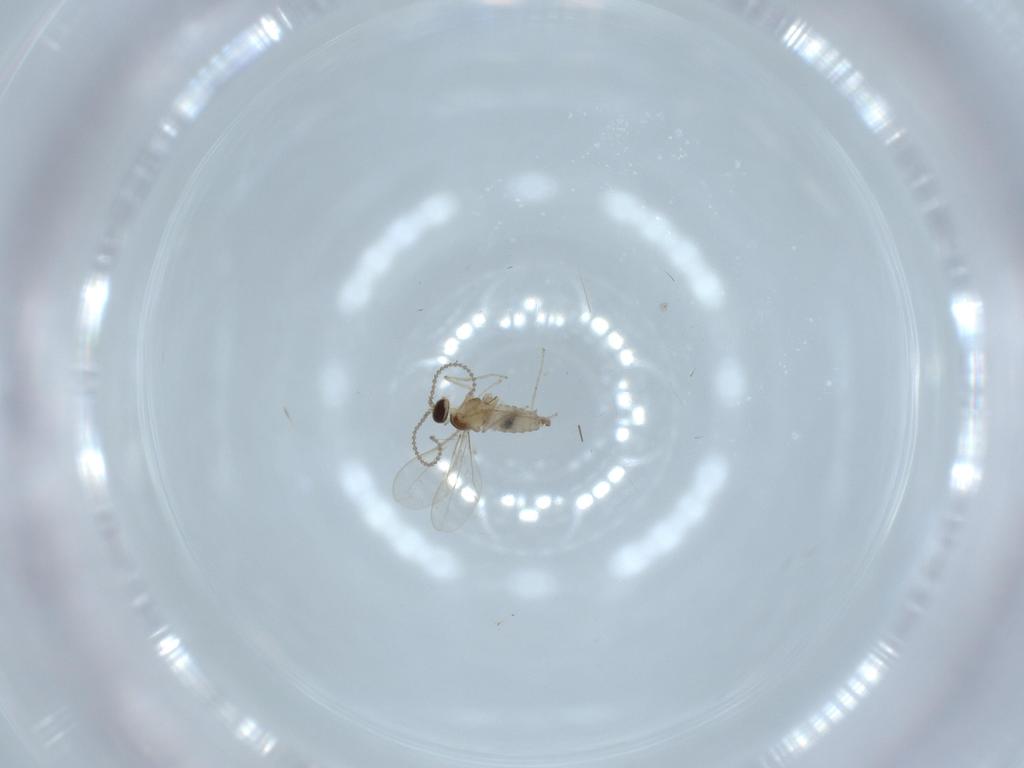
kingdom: Animalia
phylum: Arthropoda
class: Insecta
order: Diptera
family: Cecidomyiidae
